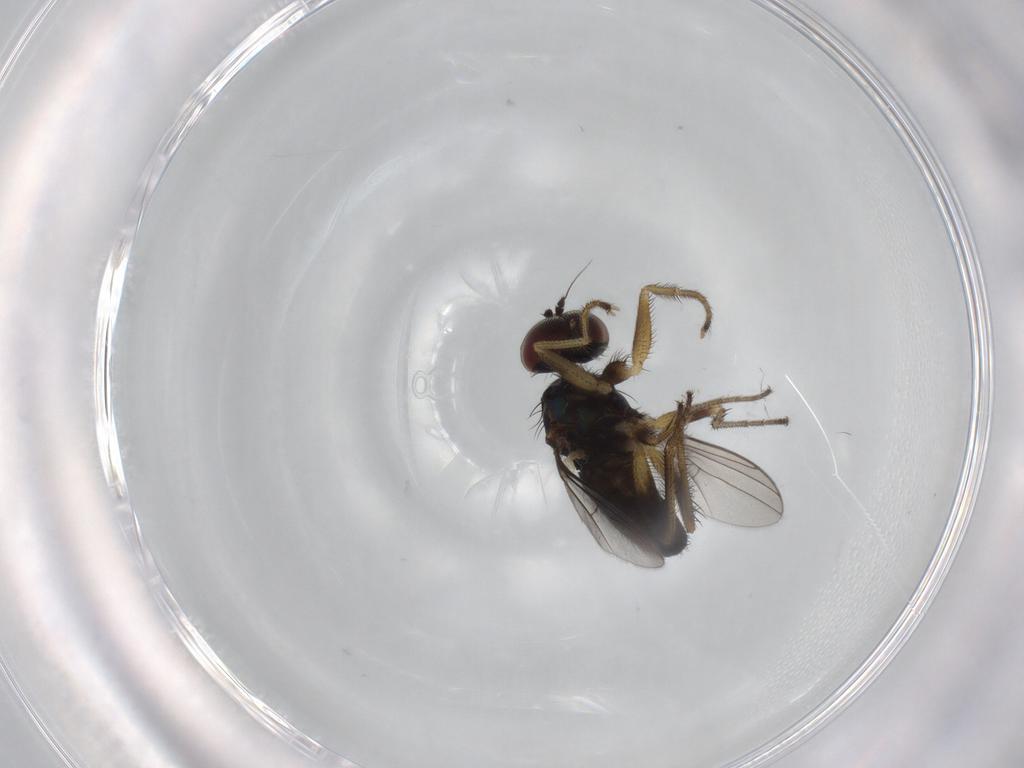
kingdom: Animalia
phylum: Arthropoda
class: Insecta
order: Diptera
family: Dolichopodidae
